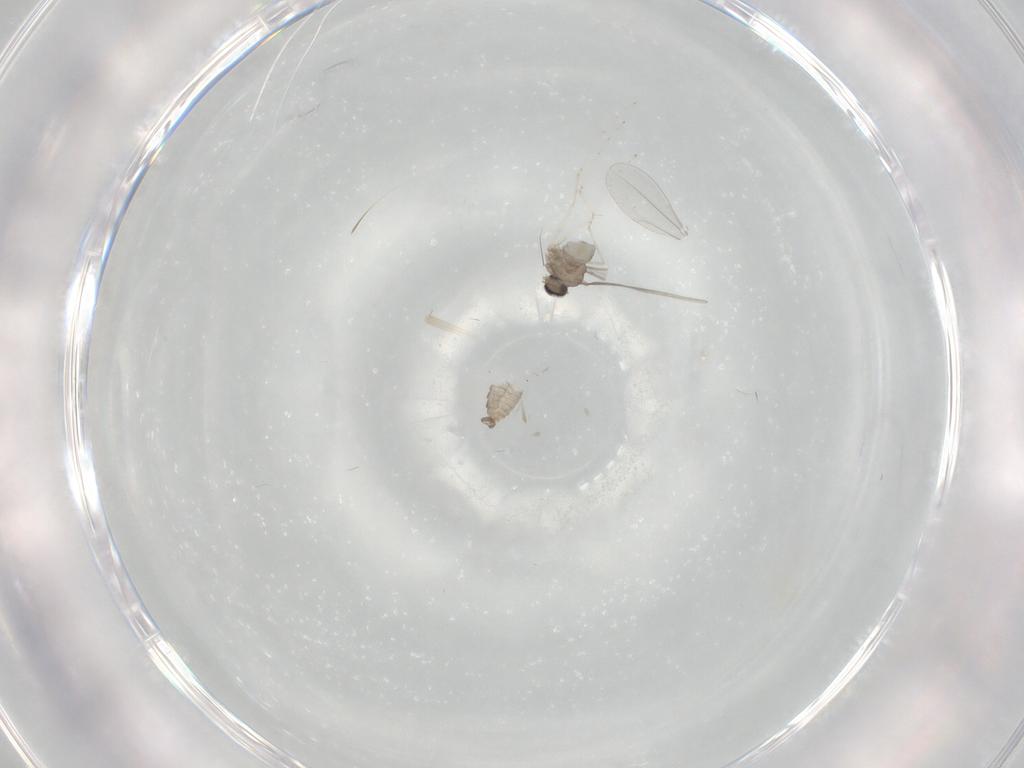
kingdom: Animalia
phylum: Arthropoda
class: Insecta
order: Diptera
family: Cecidomyiidae
